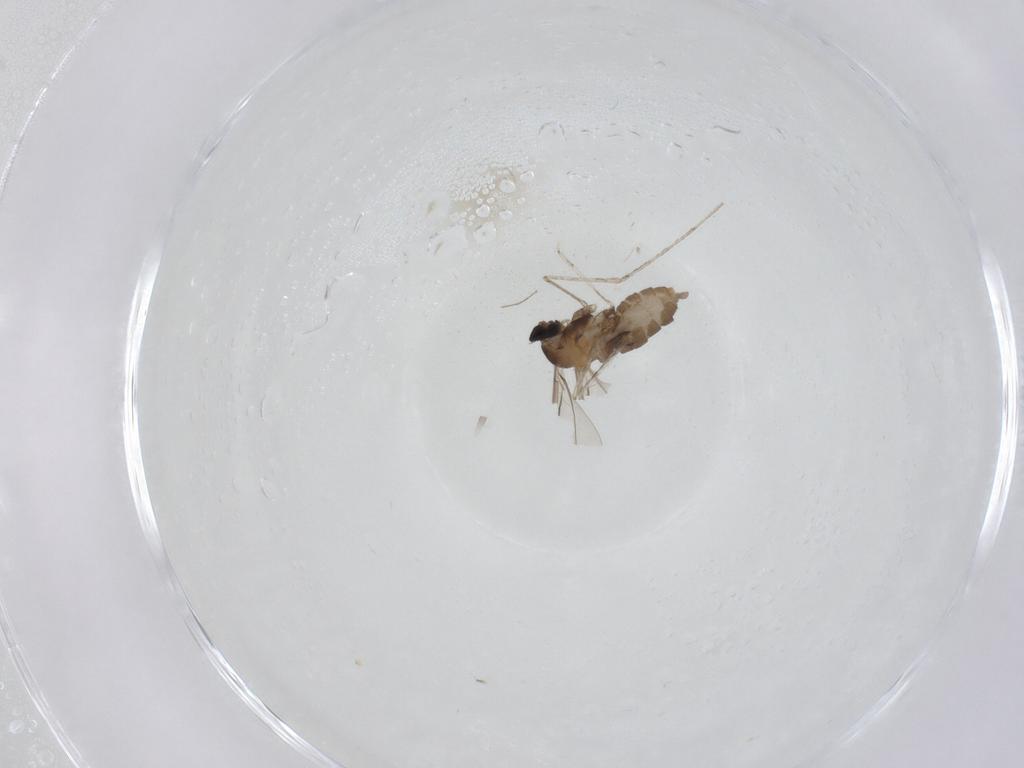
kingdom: Animalia
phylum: Arthropoda
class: Insecta
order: Diptera
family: Cecidomyiidae
